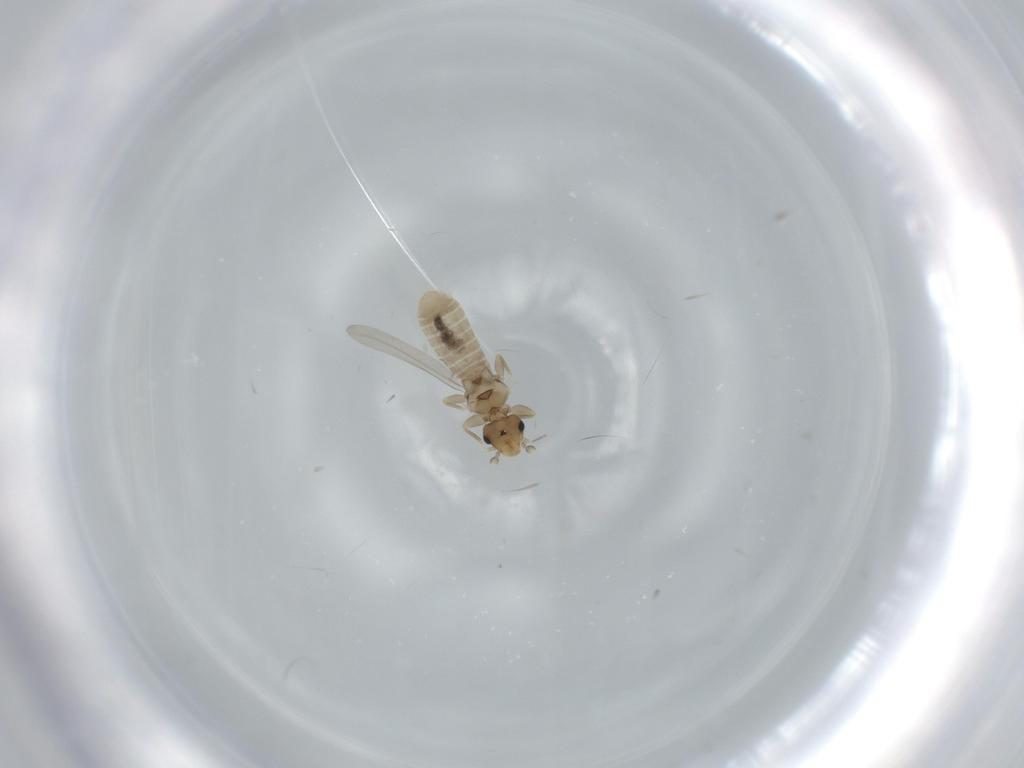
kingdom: Animalia
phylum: Arthropoda
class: Insecta
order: Psocodea
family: Liposcelididae
